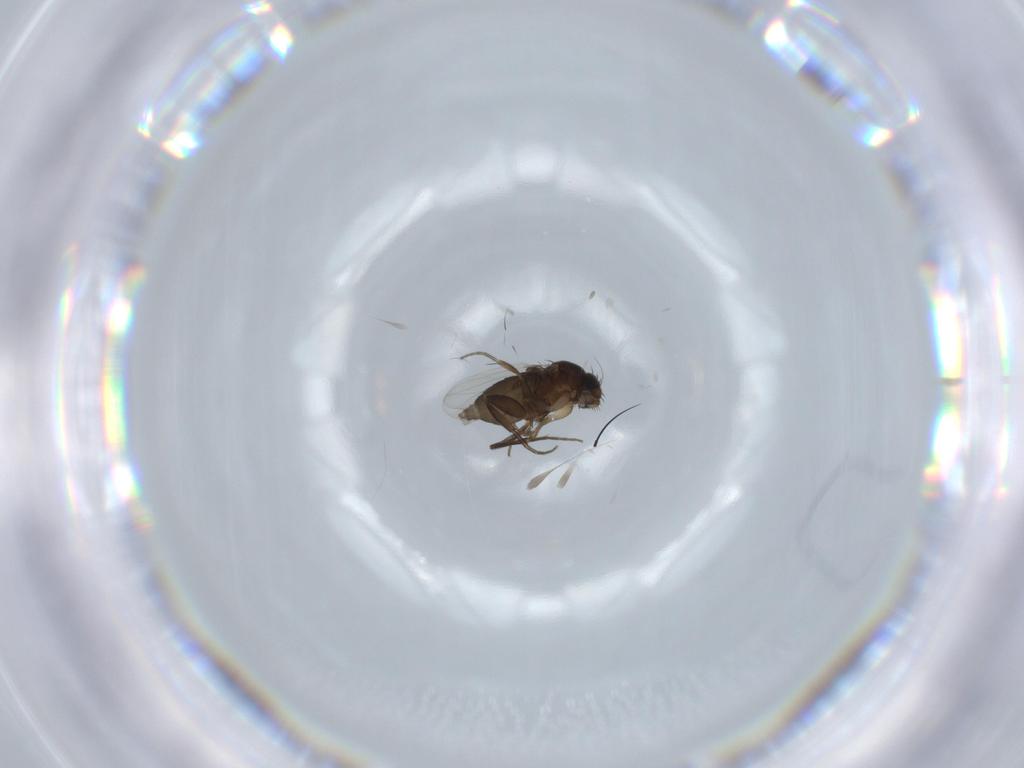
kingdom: Animalia
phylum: Arthropoda
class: Insecta
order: Diptera
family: Phoridae
